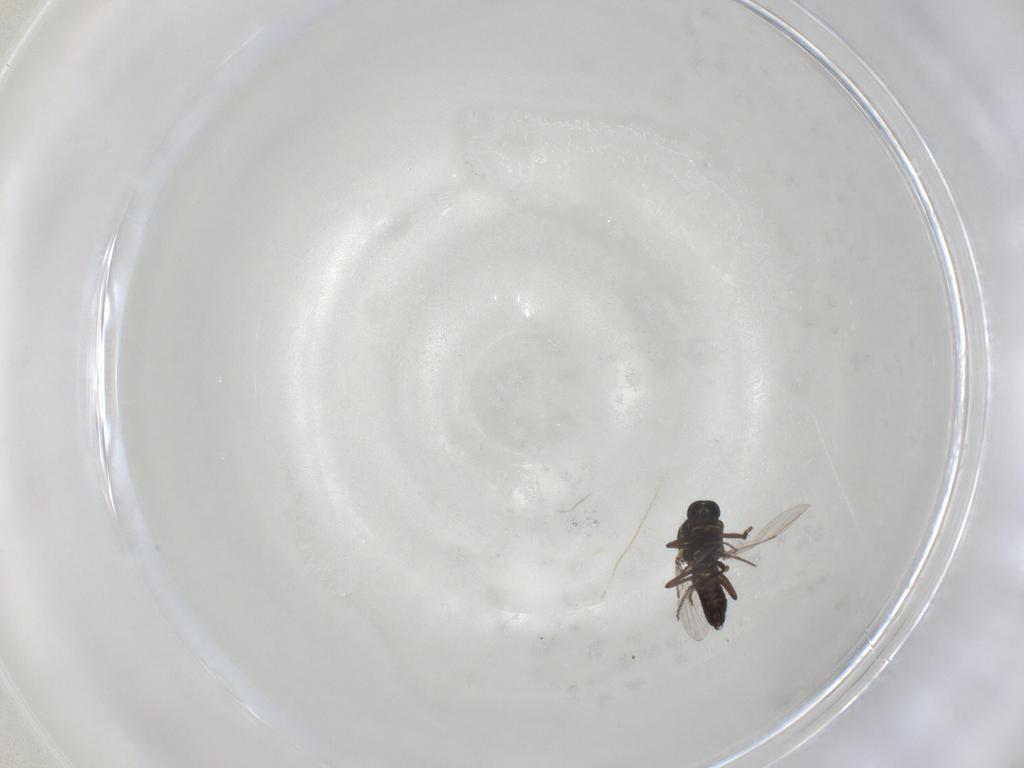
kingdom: Animalia
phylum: Arthropoda
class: Insecta
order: Diptera
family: Ceratopogonidae
